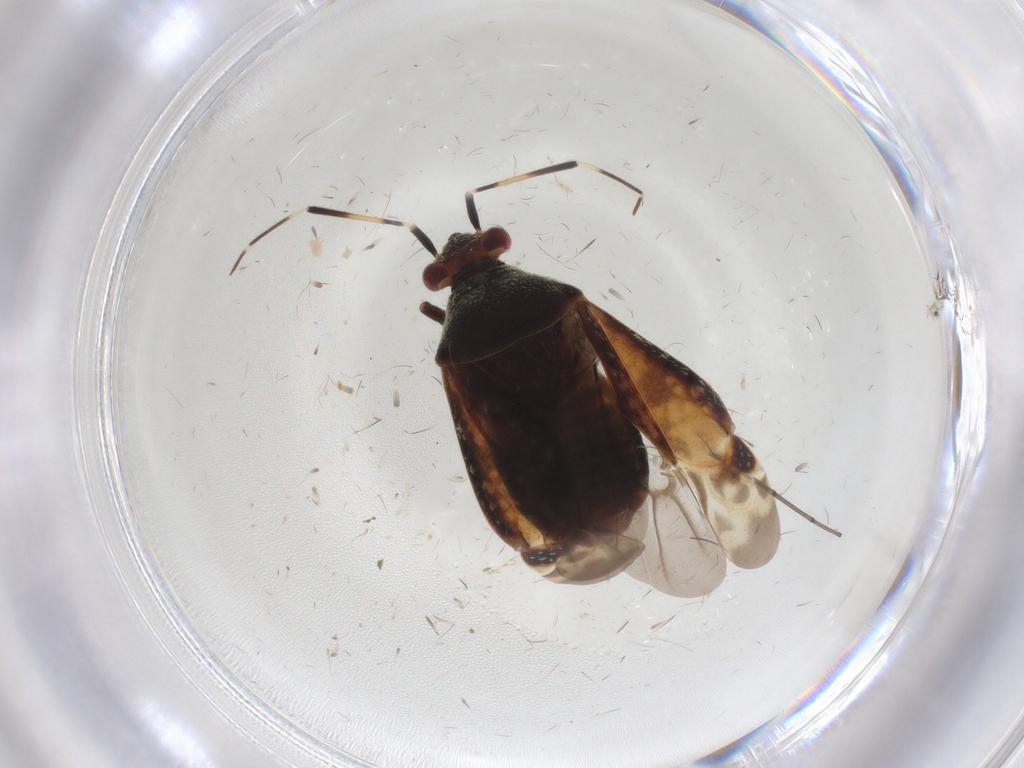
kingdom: Animalia
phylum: Arthropoda
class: Insecta
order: Hemiptera
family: Miridae
